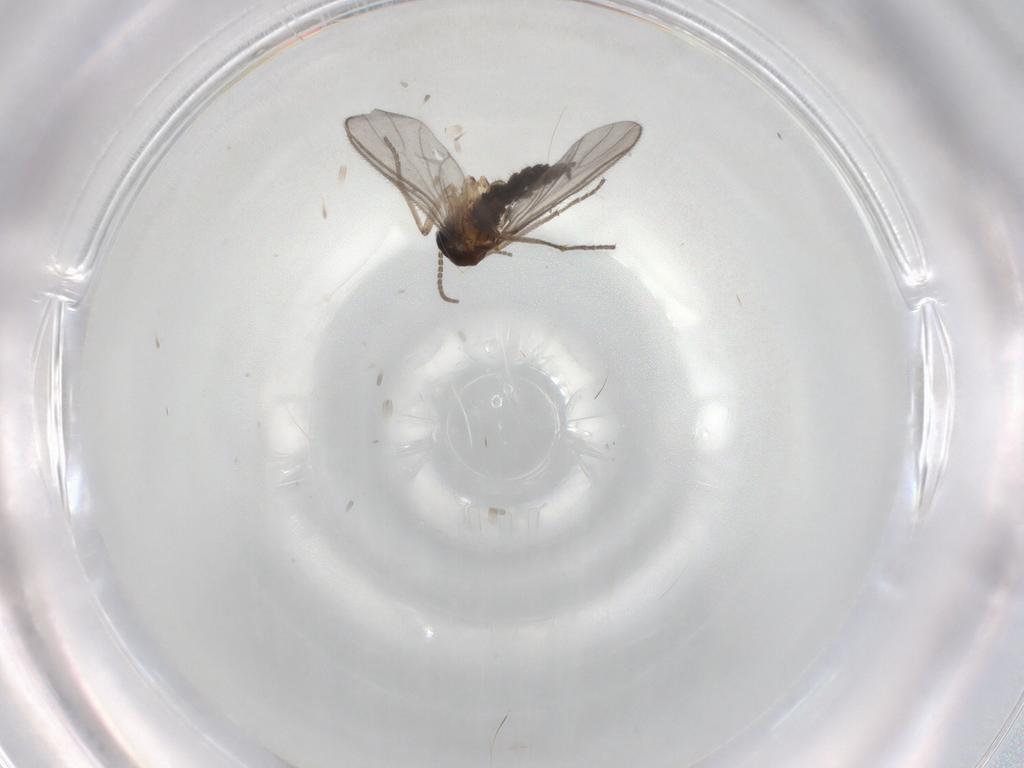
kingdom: Animalia
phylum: Arthropoda
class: Insecta
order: Diptera
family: Sciaridae
